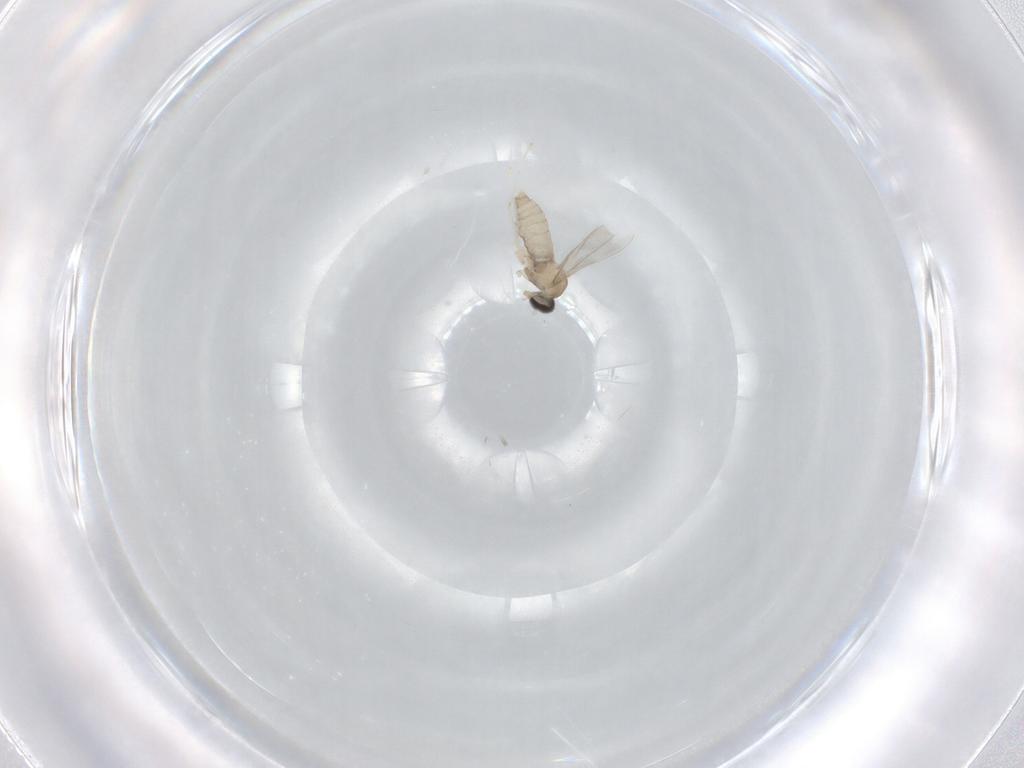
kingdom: Animalia
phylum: Arthropoda
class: Insecta
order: Diptera
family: Cecidomyiidae
